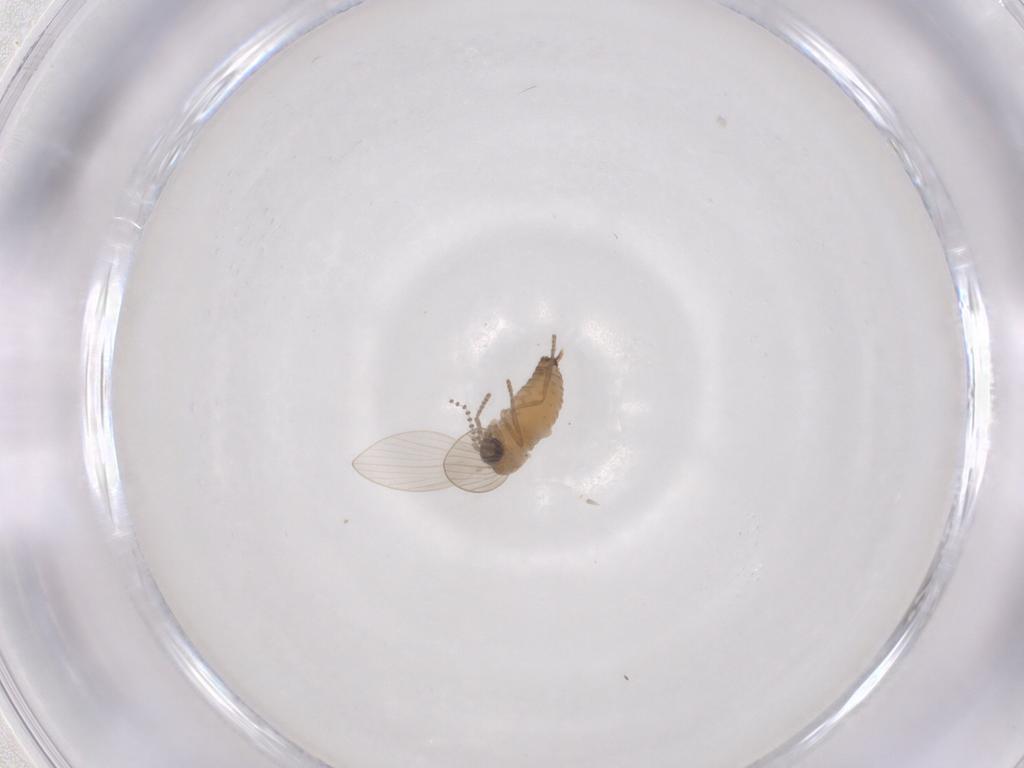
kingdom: Animalia
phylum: Arthropoda
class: Insecta
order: Diptera
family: Psychodidae
